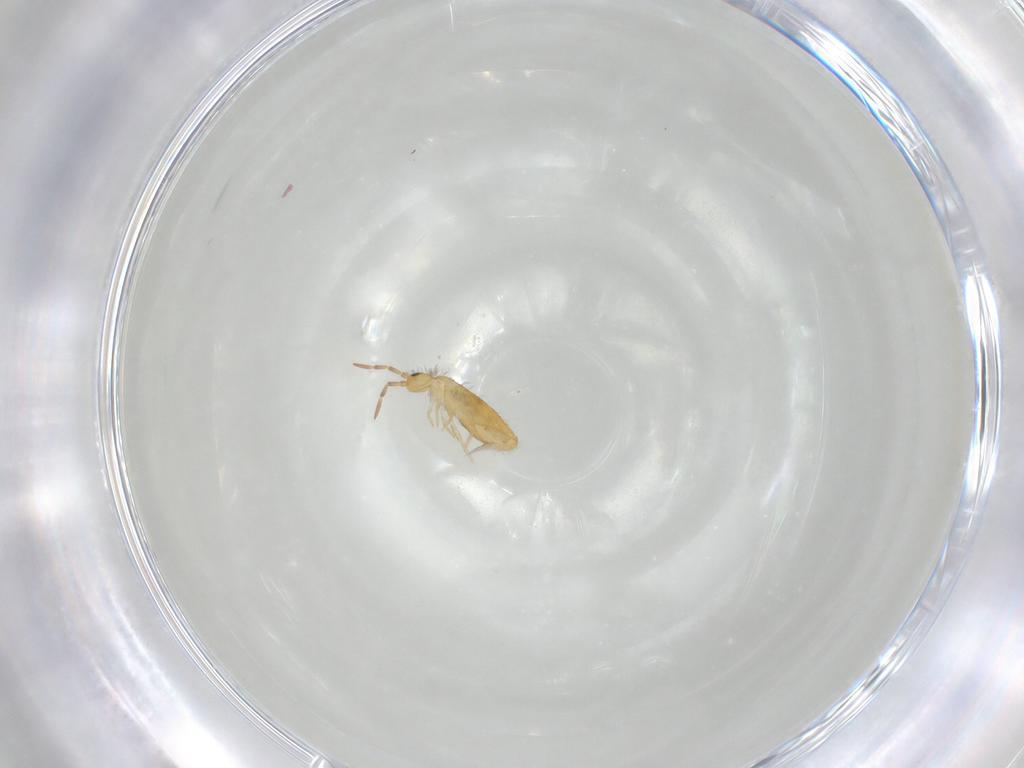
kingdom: Animalia
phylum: Arthropoda
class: Collembola
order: Entomobryomorpha
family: Entomobryidae
